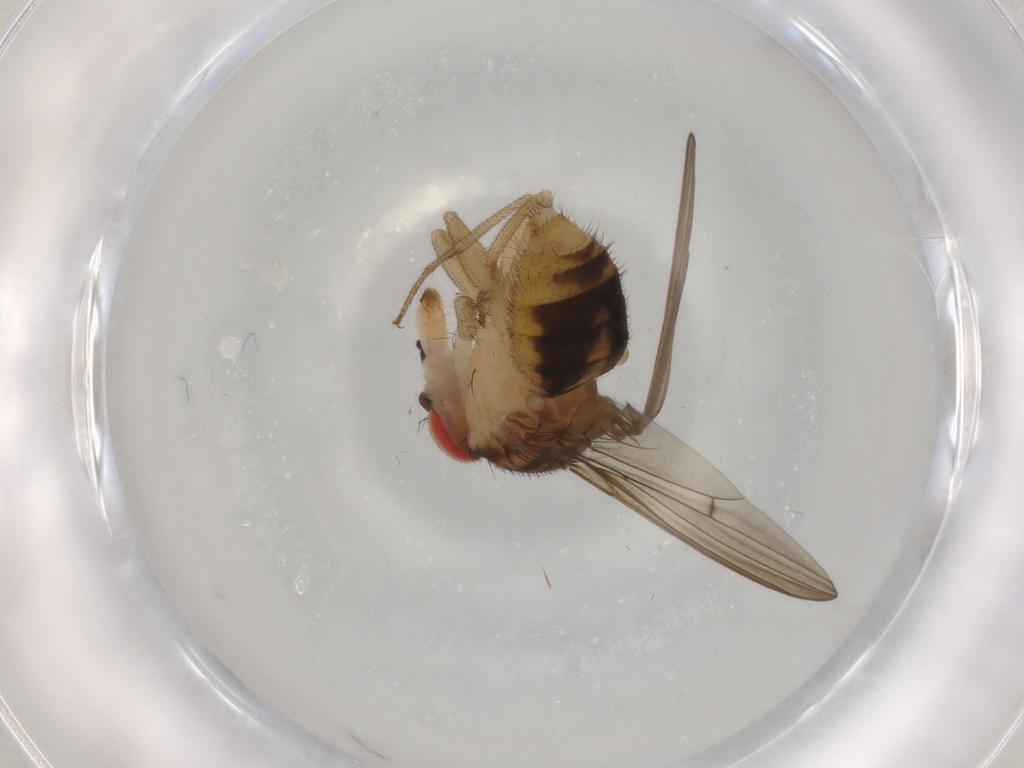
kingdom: Animalia
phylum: Arthropoda
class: Insecta
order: Diptera
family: Drosophilidae
